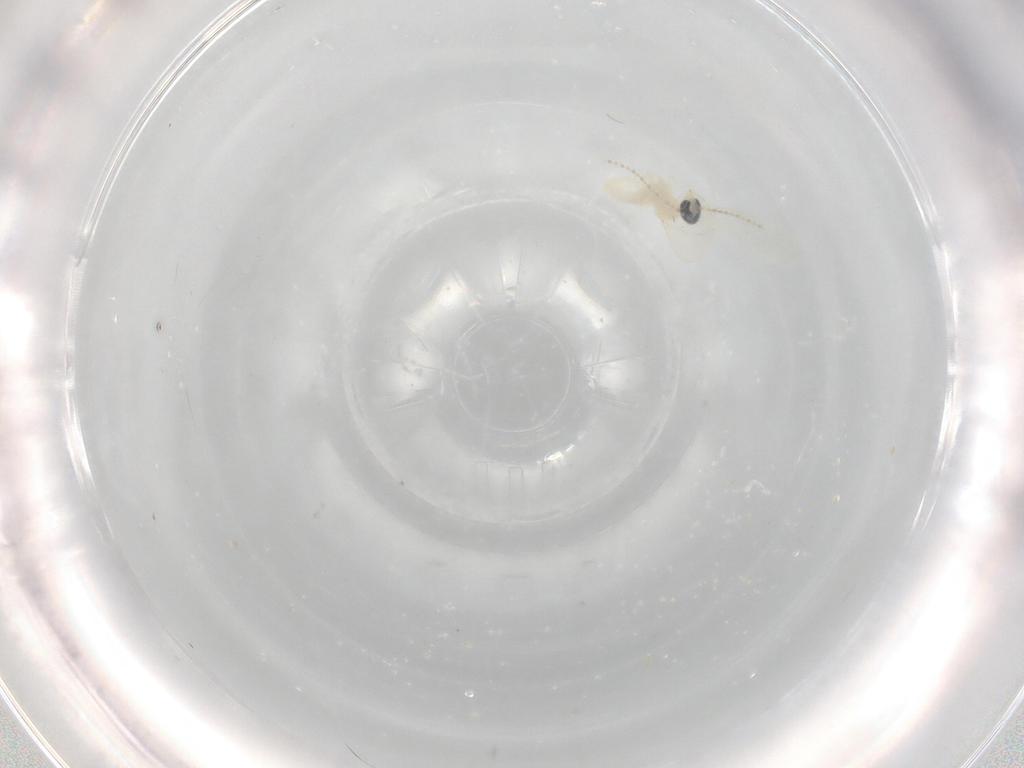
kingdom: Animalia
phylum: Arthropoda
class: Insecta
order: Diptera
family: Cecidomyiidae
